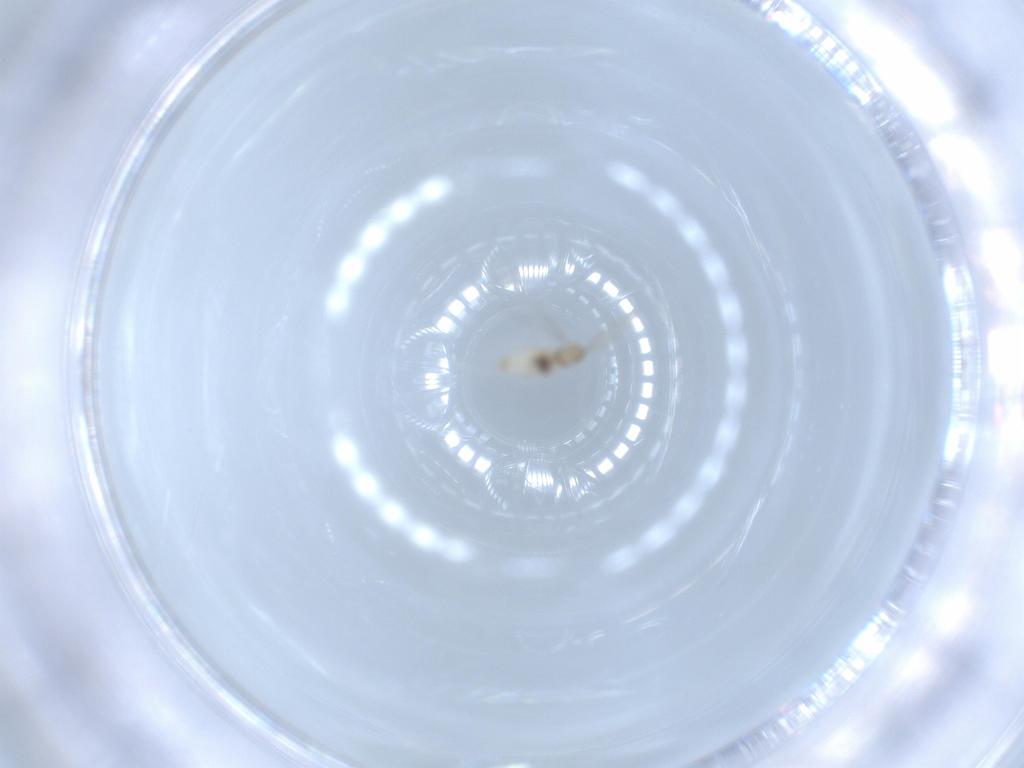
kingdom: Animalia
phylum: Arthropoda
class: Insecta
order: Diptera
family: Cecidomyiidae
